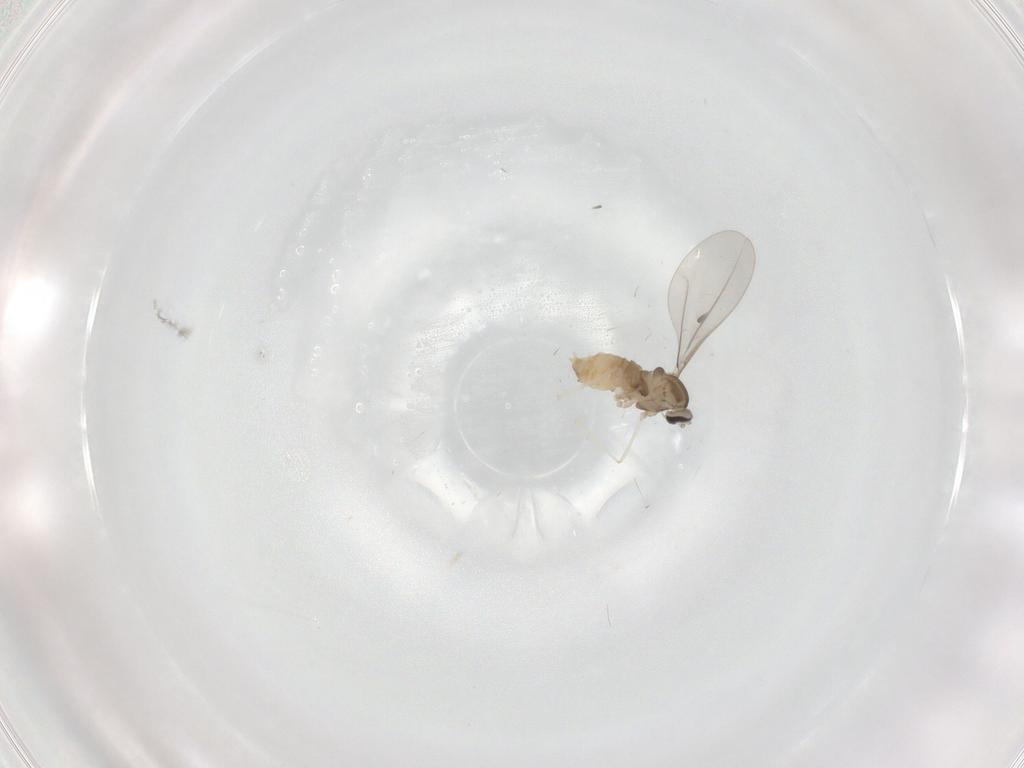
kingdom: Animalia
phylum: Arthropoda
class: Insecta
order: Diptera
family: Cecidomyiidae
